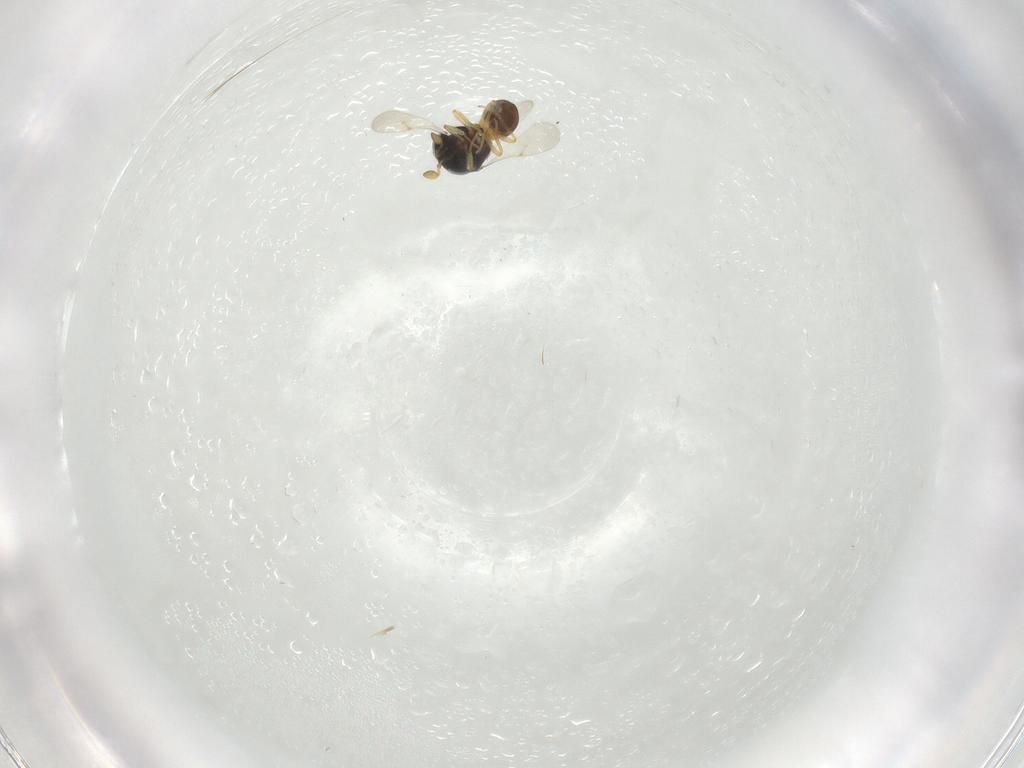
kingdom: Animalia
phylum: Arthropoda
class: Insecta
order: Hymenoptera
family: Scelionidae
